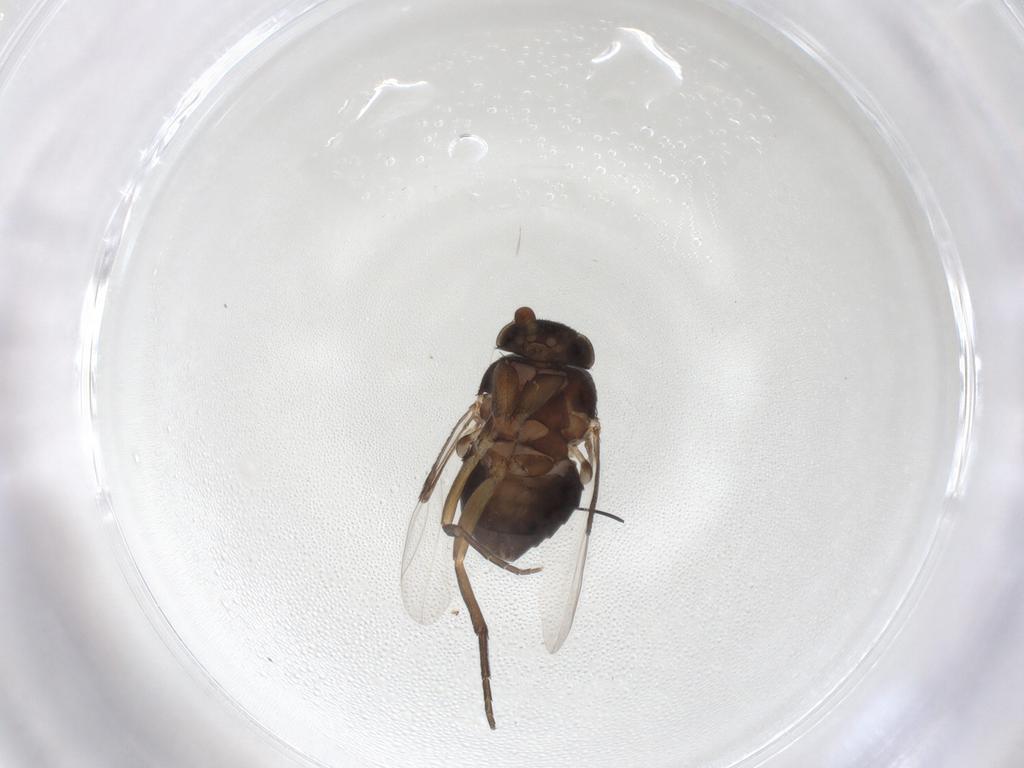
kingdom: Animalia
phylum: Arthropoda
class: Insecta
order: Diptera
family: Phoridae
